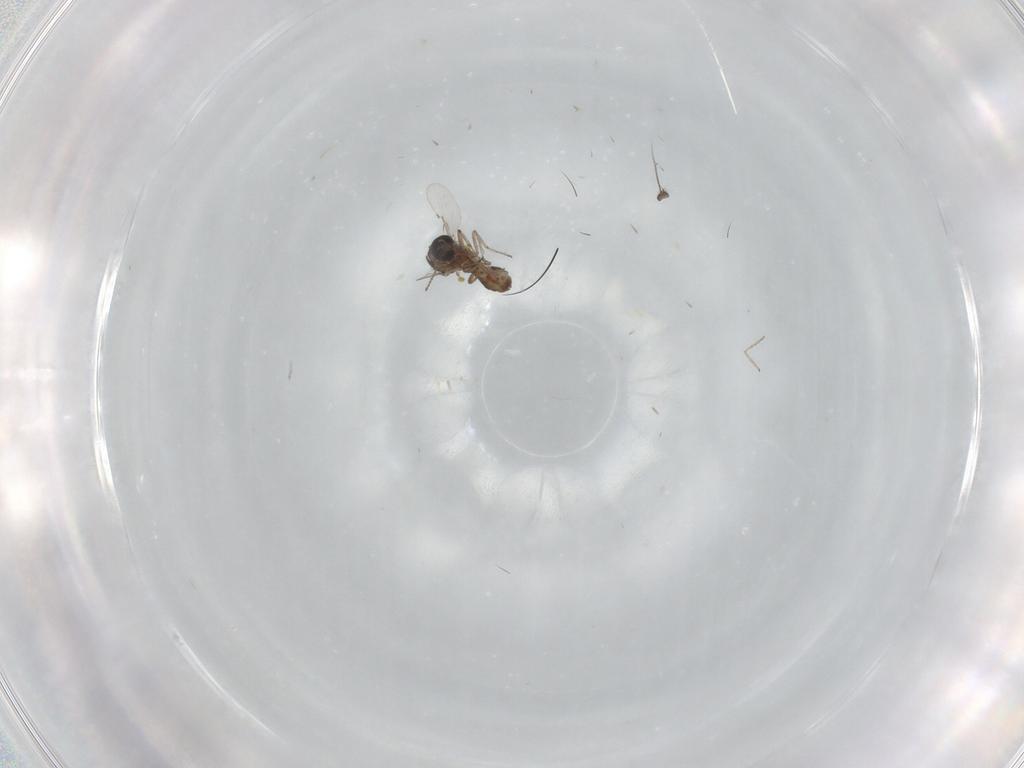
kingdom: Animalia
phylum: Arthropoda
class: Insecta
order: Diptera
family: Ceratopogonidae
